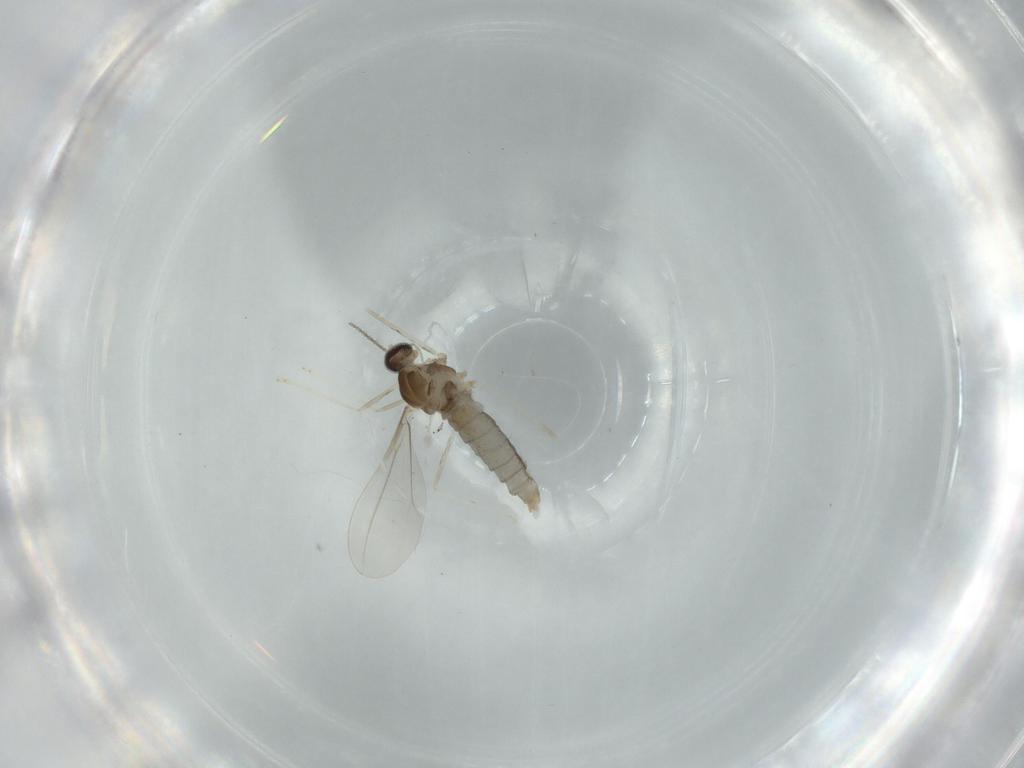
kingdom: Animalia
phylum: Arthropoda
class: Insecta
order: Diptera
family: Cecidomyiidae
